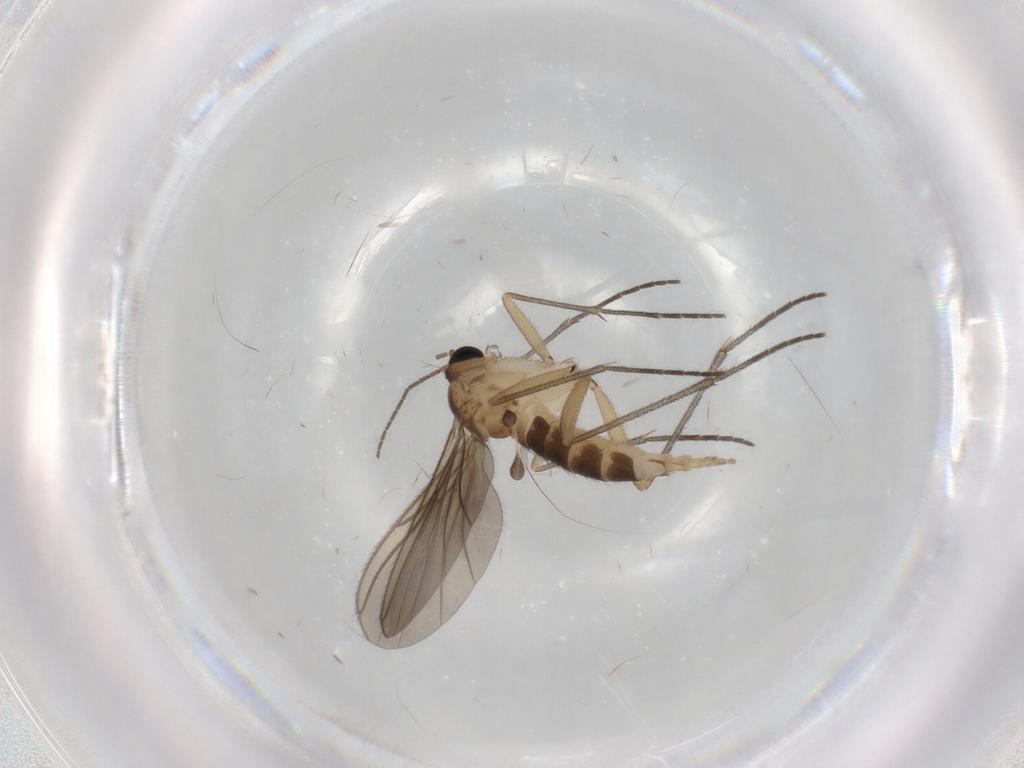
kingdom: Animalia
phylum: Arthropoda
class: Insecta
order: Diptera
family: Sciaridae
